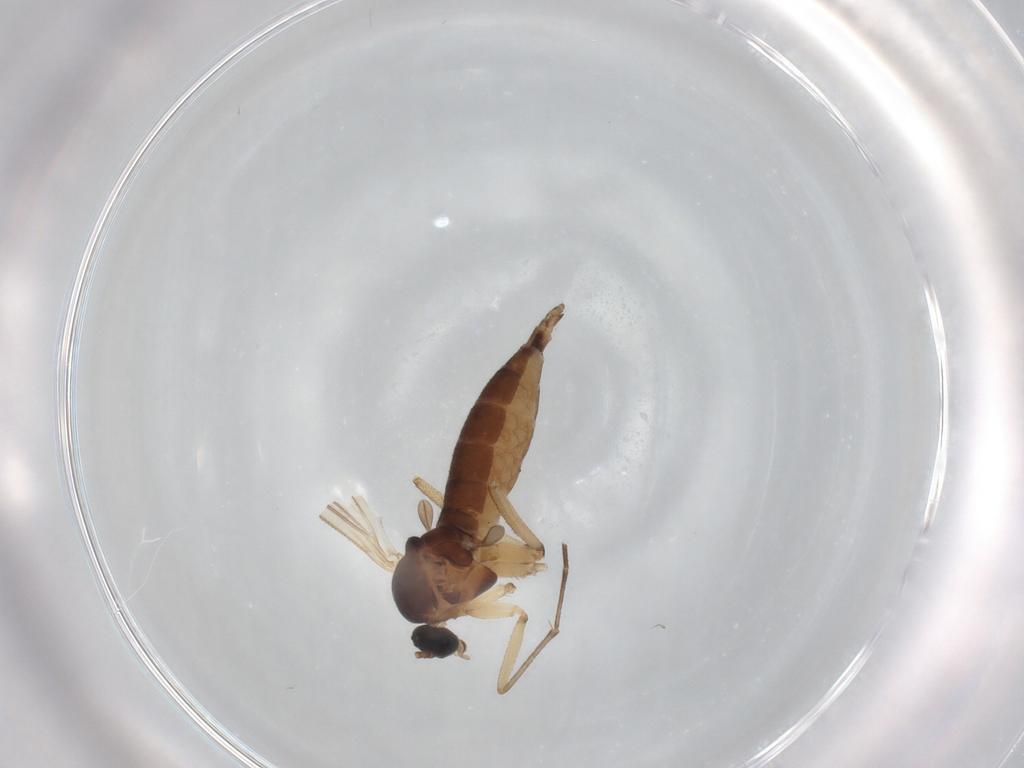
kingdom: Animalia
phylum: Arthropoda
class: Insecta
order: Diptera
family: Sciaridae
